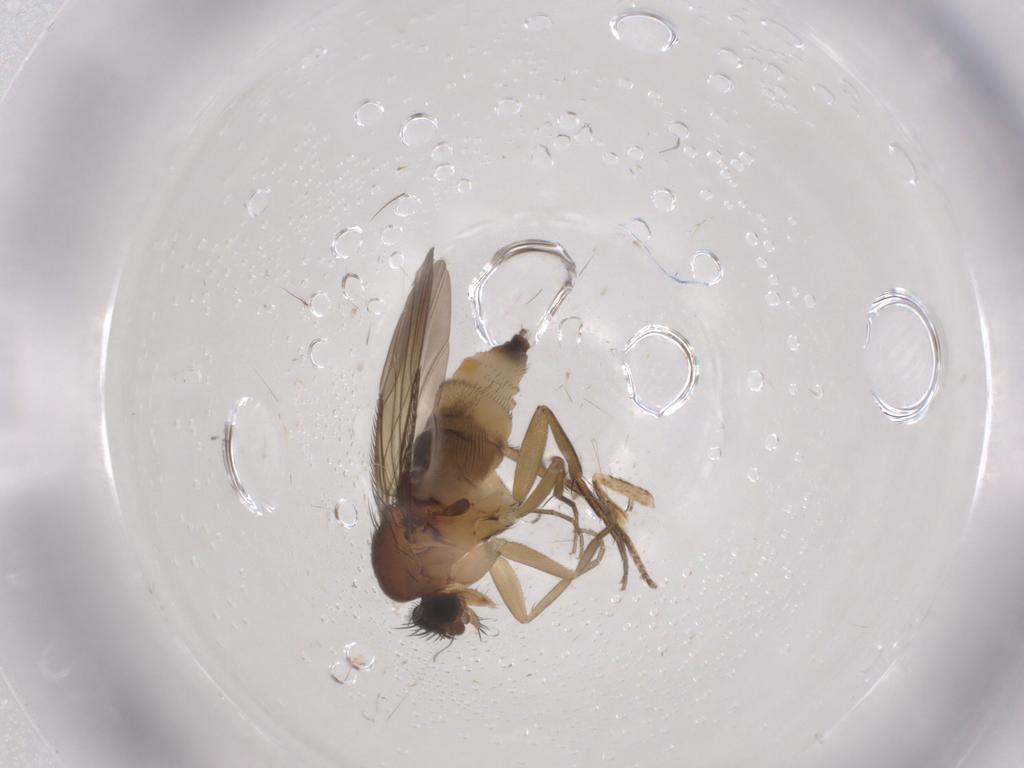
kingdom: Animalia
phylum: Arthropoda
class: Insecta
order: Diptera
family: Phoridae
